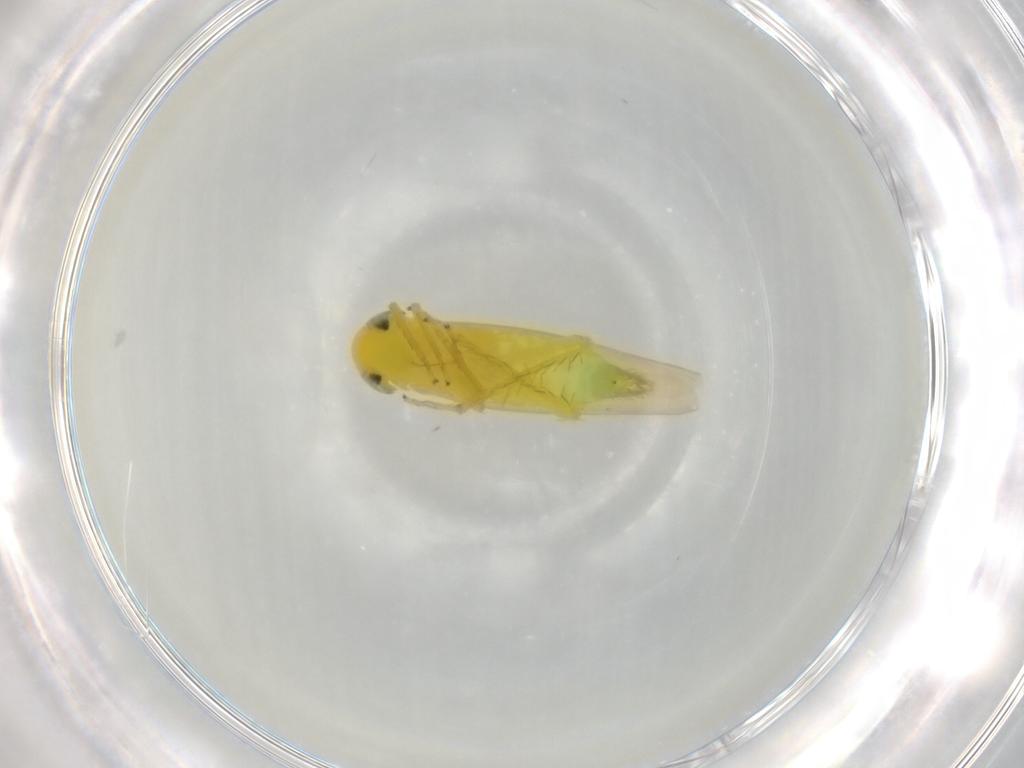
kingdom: Animalia
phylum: Arthropoda
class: Insecta
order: Hemiptera
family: Cicadellidae
